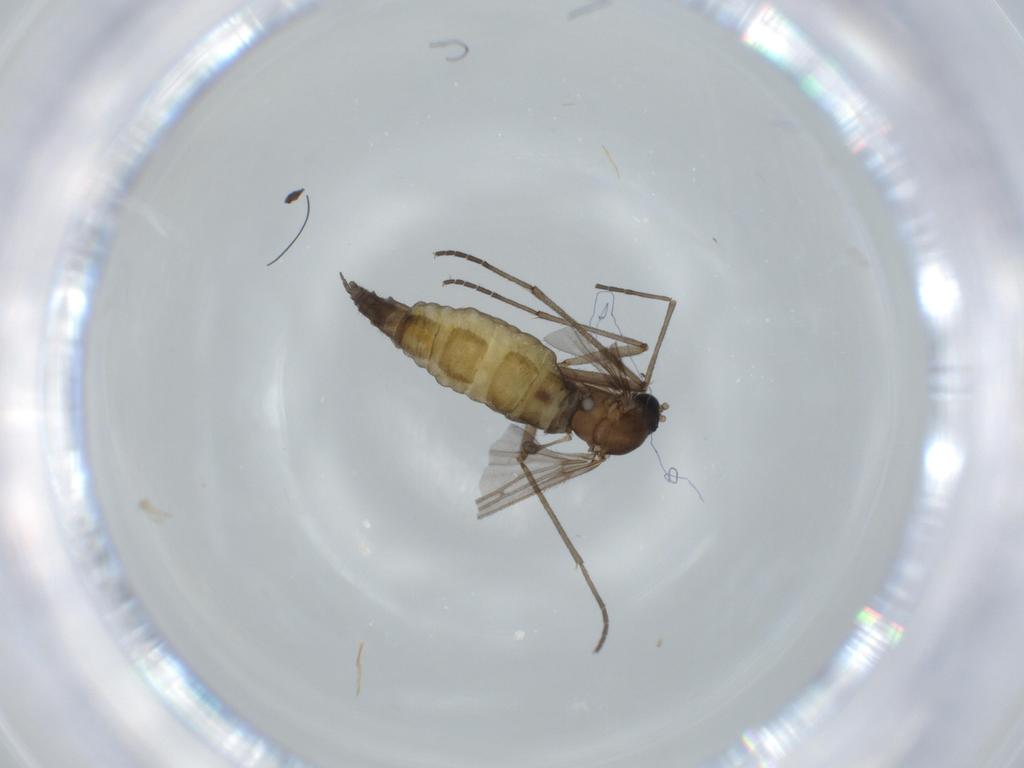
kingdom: Animalia
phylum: Arthropoda
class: Insecta
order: Diptera
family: Sciaridae
